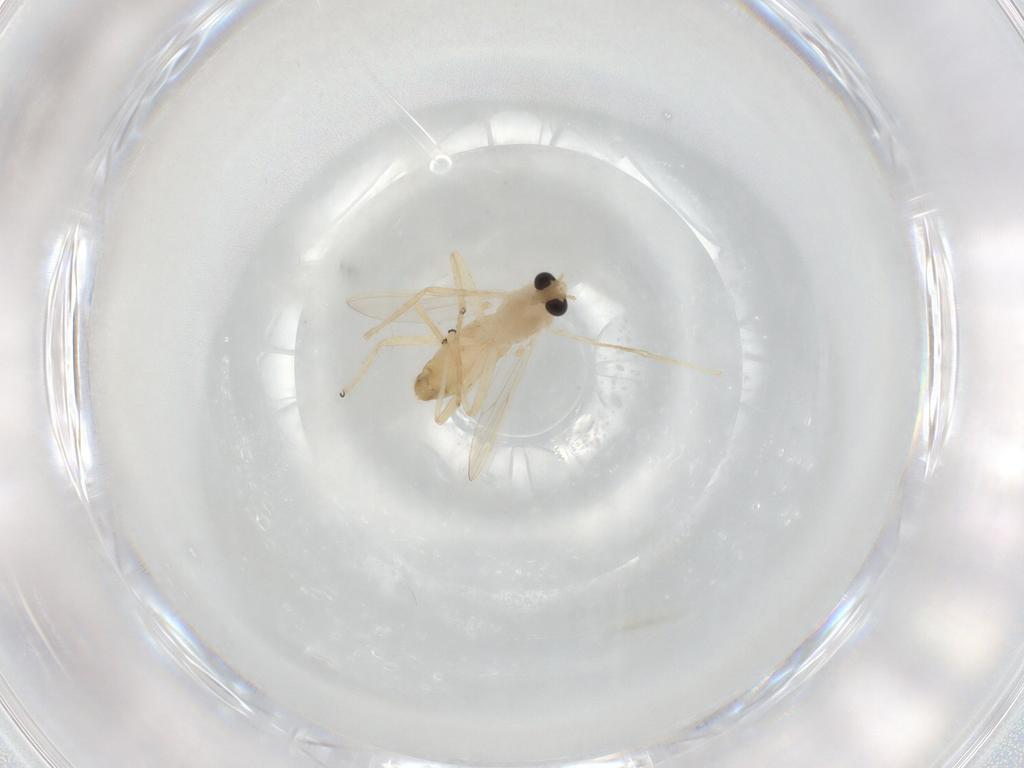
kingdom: Animalia
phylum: Arthropoda
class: Insecta
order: Diptera
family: Chironomidae
